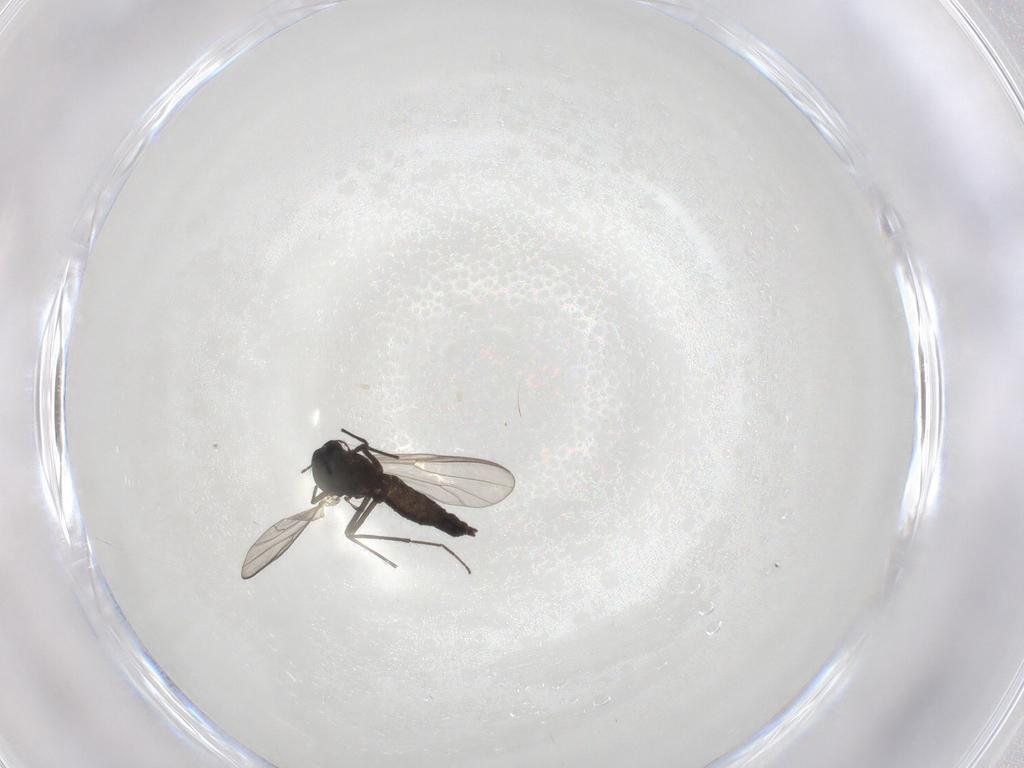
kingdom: Animalia
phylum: Arthropoda
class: Insecta
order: Diptera
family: Chironomidae
